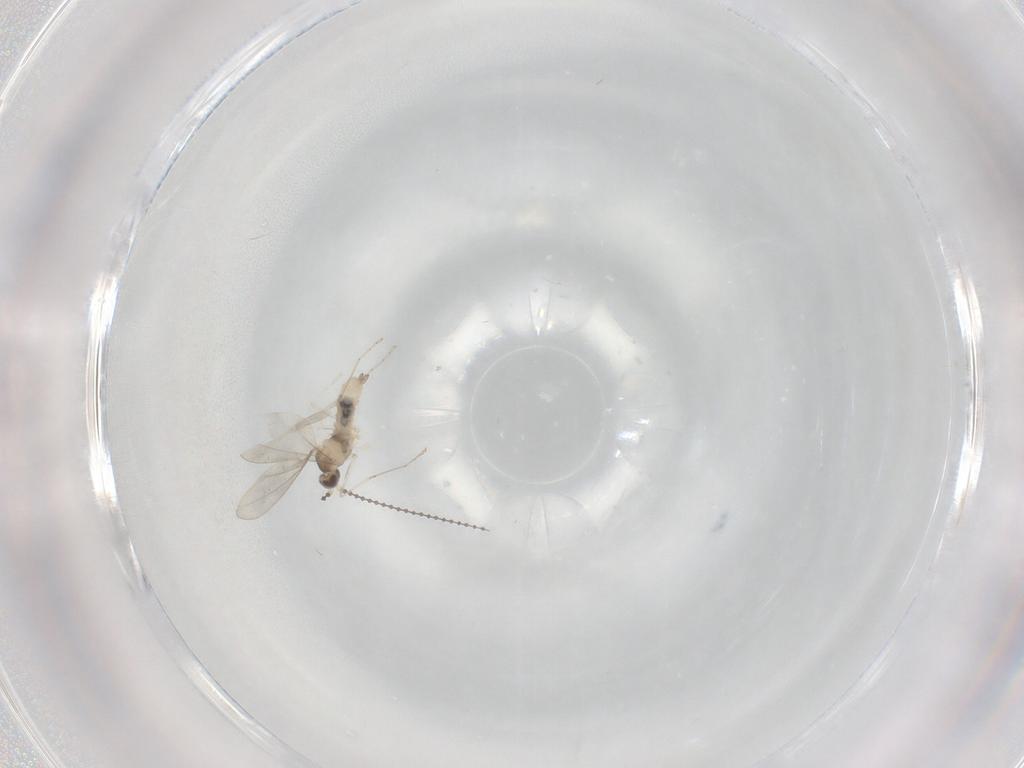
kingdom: Animalia
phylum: Arthropoda
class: Insecta
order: Diptera
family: Cecidomyiidae
